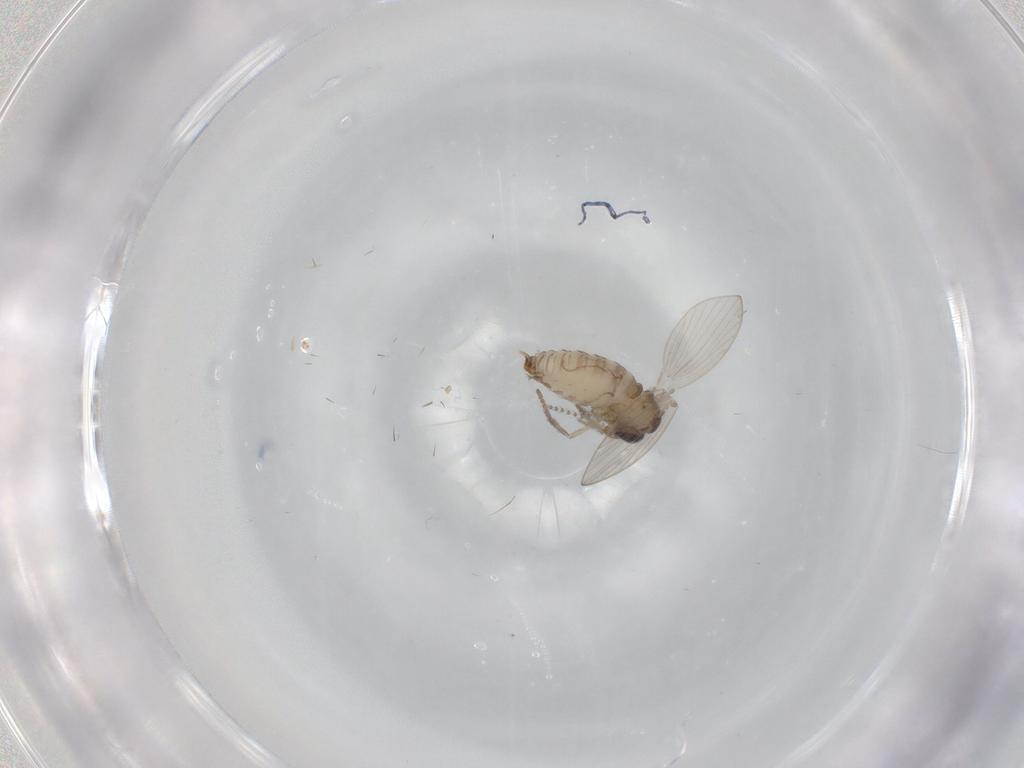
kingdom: Animalia
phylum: Arthropoda
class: Insecta
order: Diptera
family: Psychodidae
